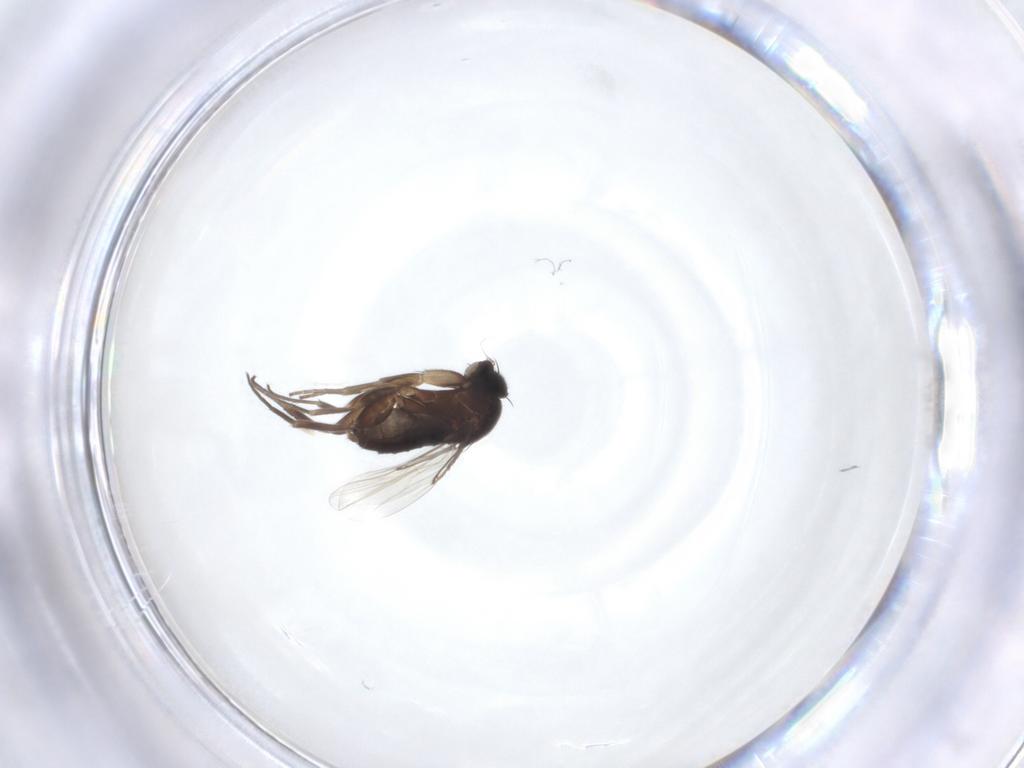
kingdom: Animalia
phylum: Arthropoda
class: Insecta
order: Diptera
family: Phoridae
